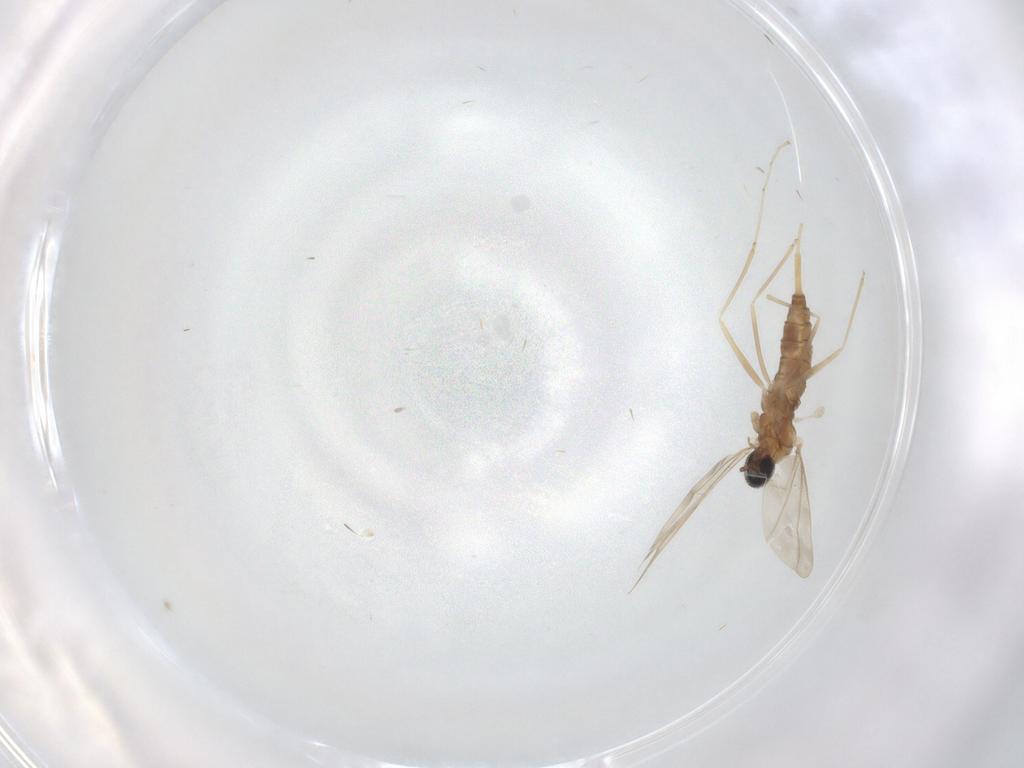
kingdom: Animalia
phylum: Arthropoda
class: Insecta
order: Diptera
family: Cecidomyiidae
